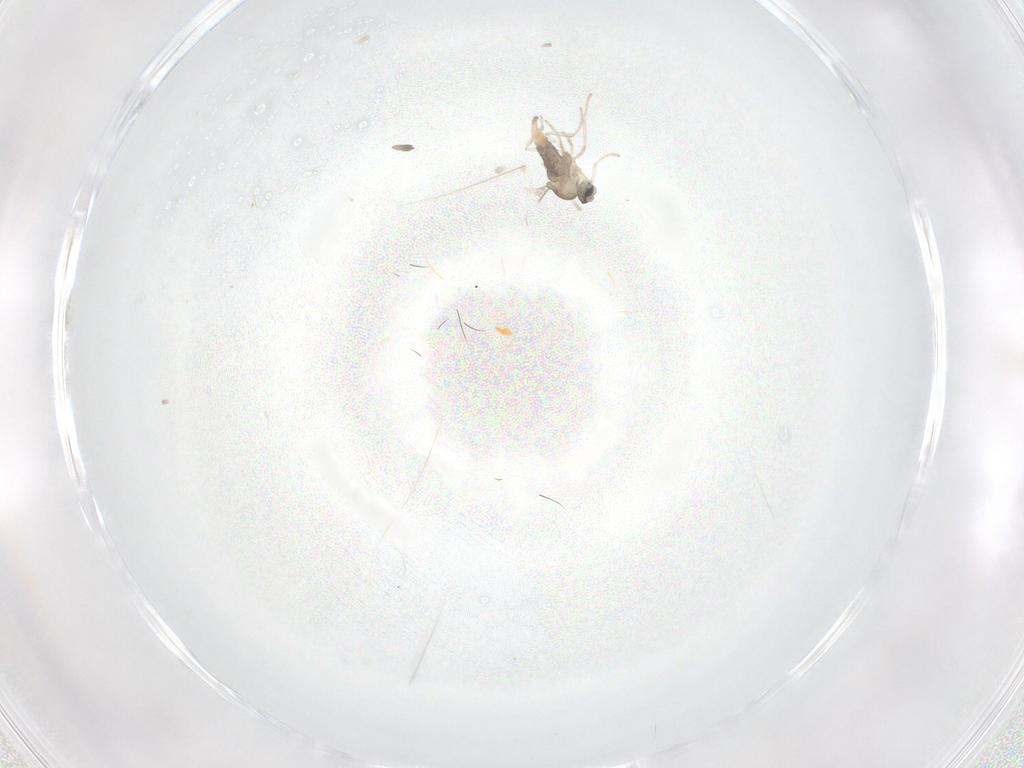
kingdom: Animalia
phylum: Arthropoda
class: Insecta
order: Diptera
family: Cecidomyiidae
